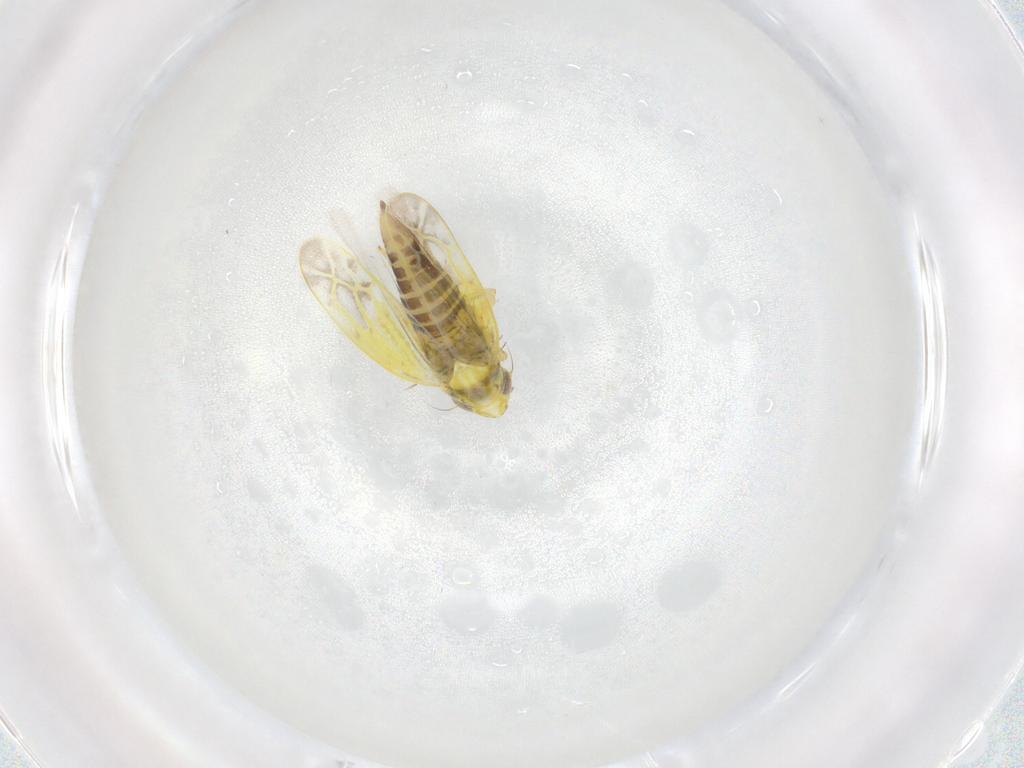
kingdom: Animalia
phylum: Arthropoda
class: Insecta
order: Hemiptera
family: Cicadellidae
